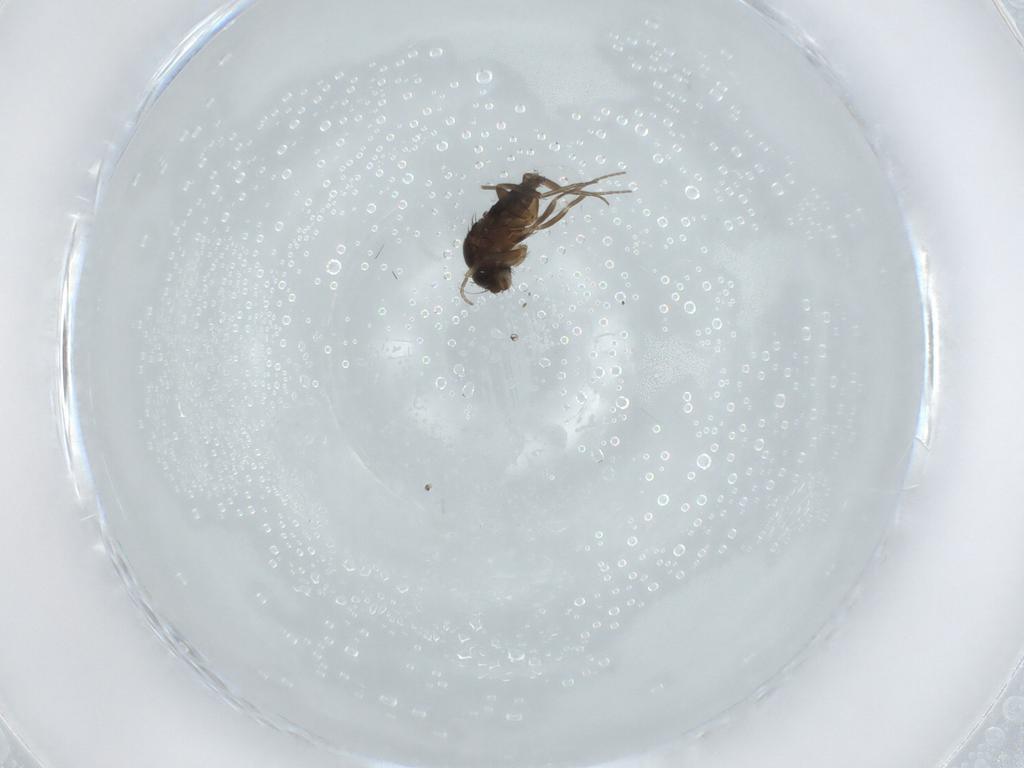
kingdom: Animalia
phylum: Arthropoda
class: Insecta
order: Diptera
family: Phoridae
